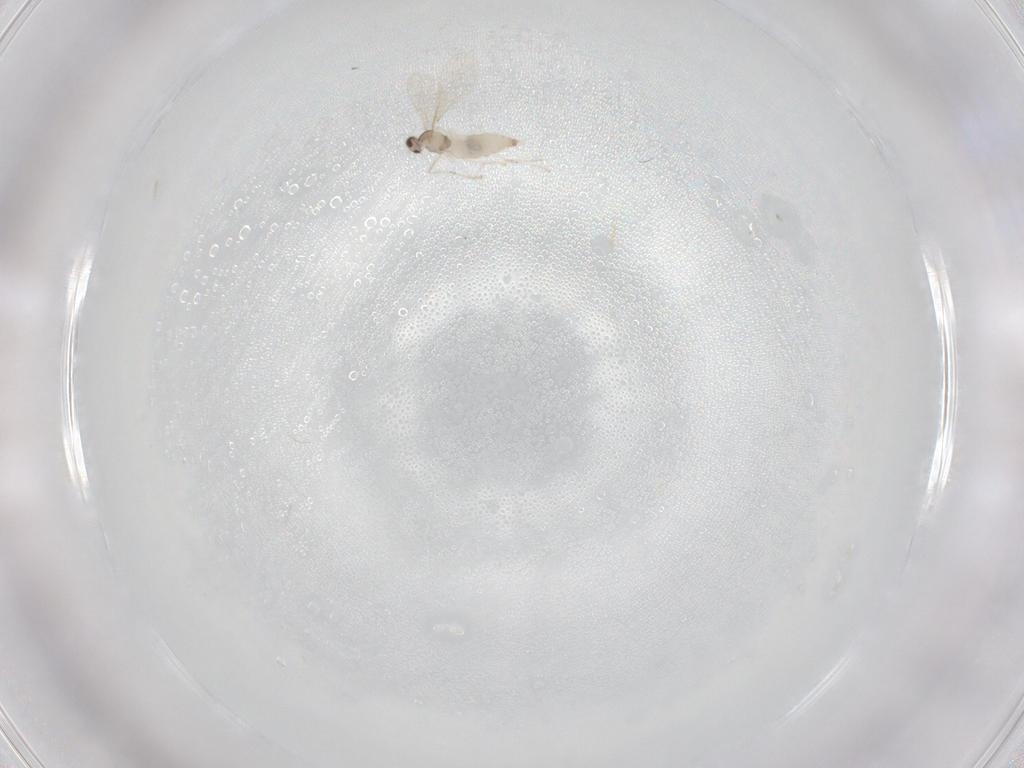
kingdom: Animalia
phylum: Arthropoda
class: Insecta
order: Diptera
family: Cecidomyiidae
